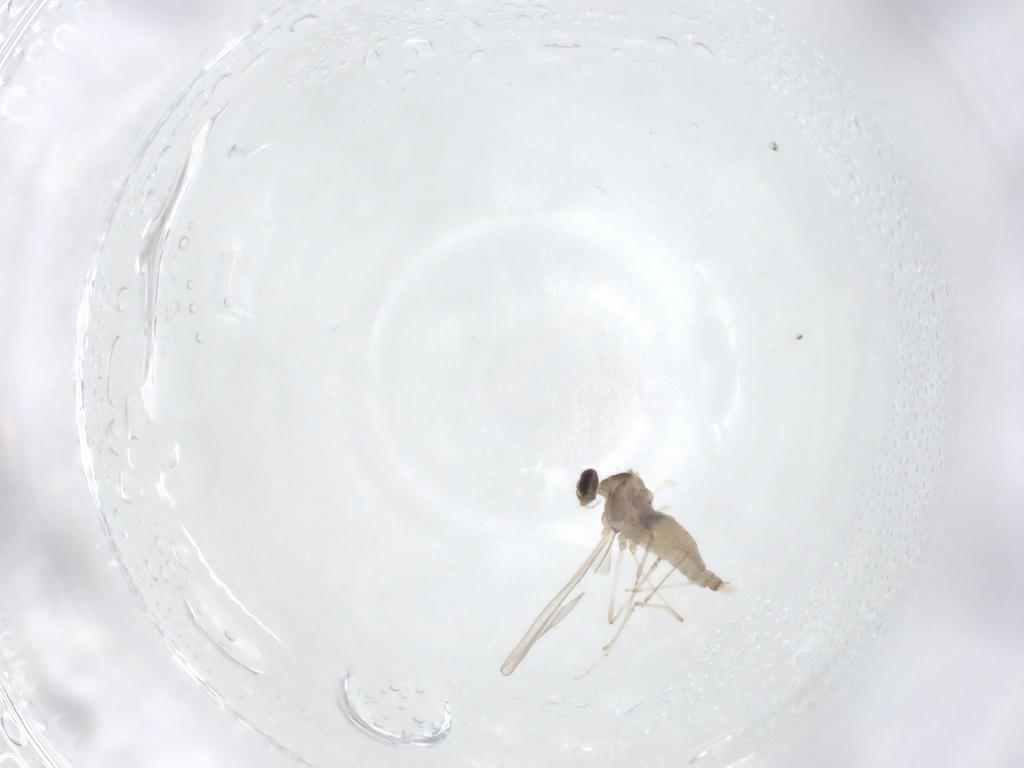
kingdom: Animalia
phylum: Arthropoda
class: Insecta
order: Diptera
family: Cecidomyiidae
